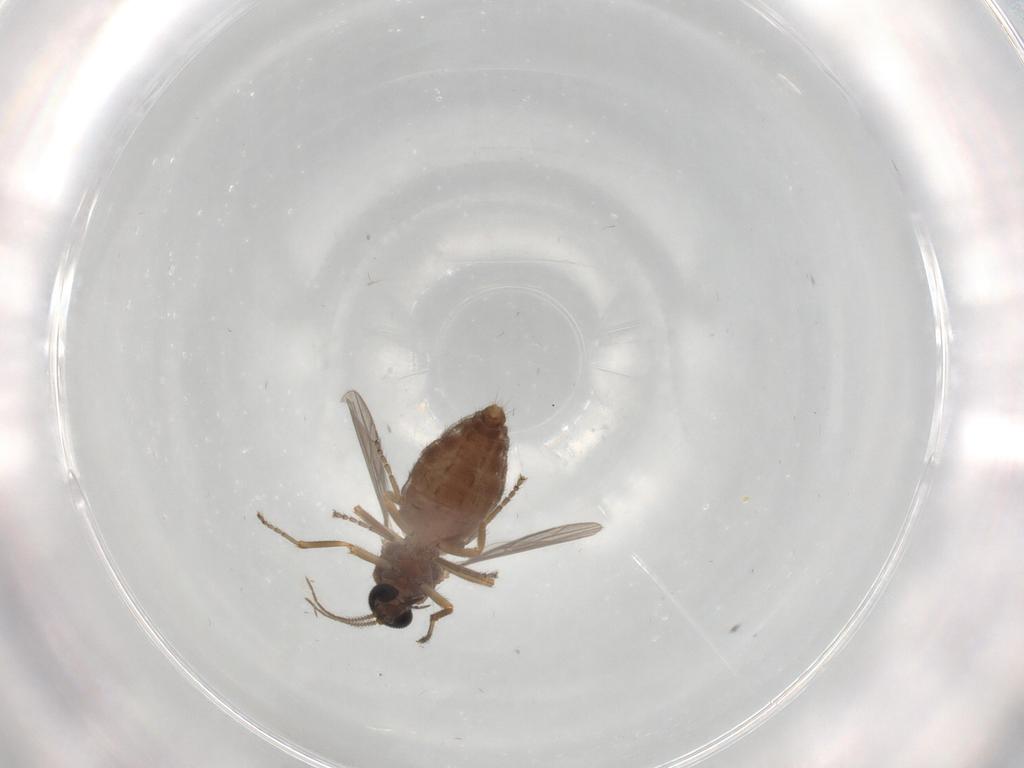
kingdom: Animalia
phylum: Arthropoda
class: Insecta
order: Diptera
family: Ceratopogonidae
